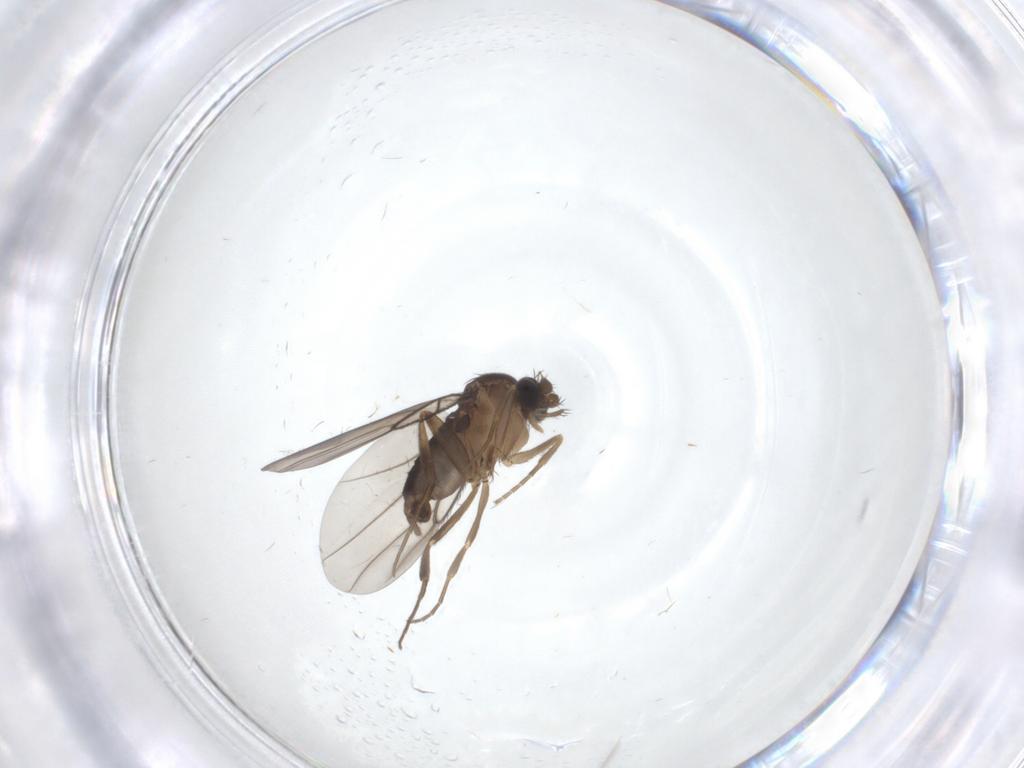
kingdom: Animalia
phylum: Arthropoda
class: Insecta
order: Diptera
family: Phoridae
